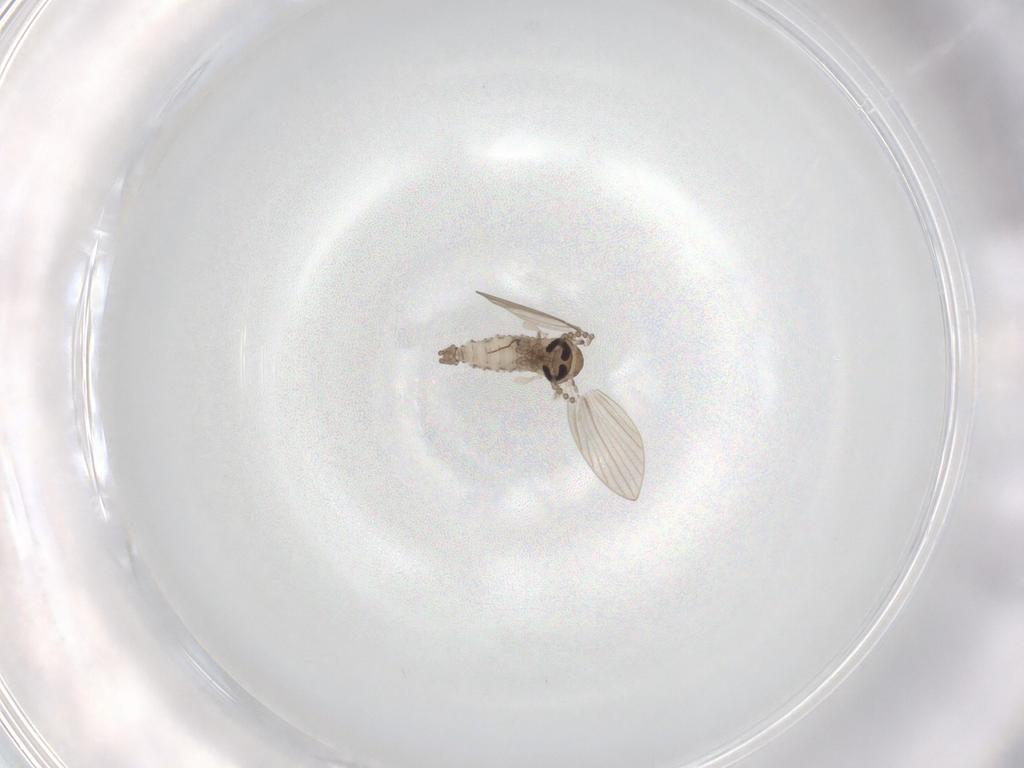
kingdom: Animalia
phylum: Arthropoda
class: Insecta
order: Diptera
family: Psychodidae
